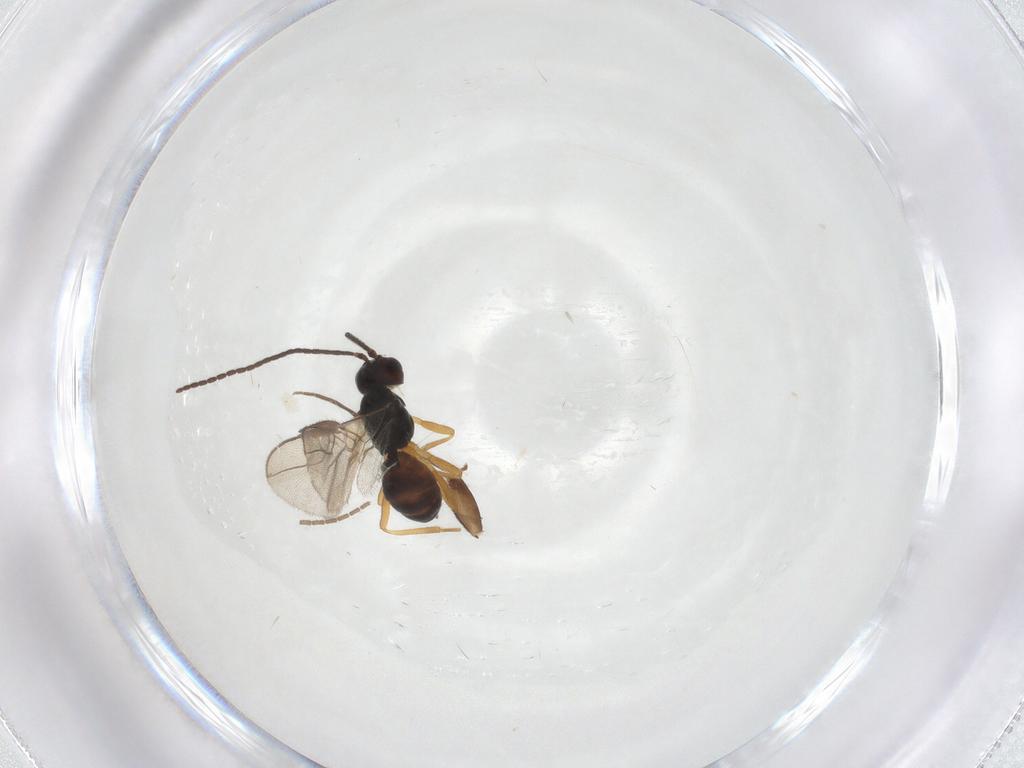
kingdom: Animalia
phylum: Arthropoda
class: Insecta
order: Hymenoptera
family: Braconidae
